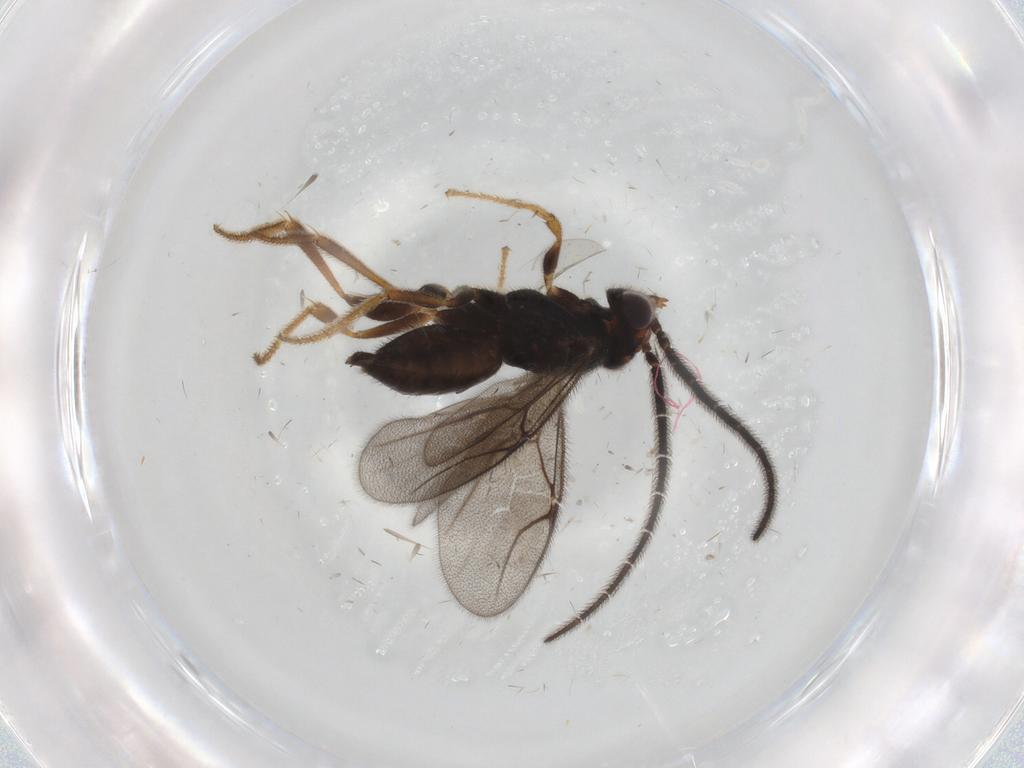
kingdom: Animalia
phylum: Arthropoda
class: Insecta
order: Hymenoptera
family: Dryinidae
